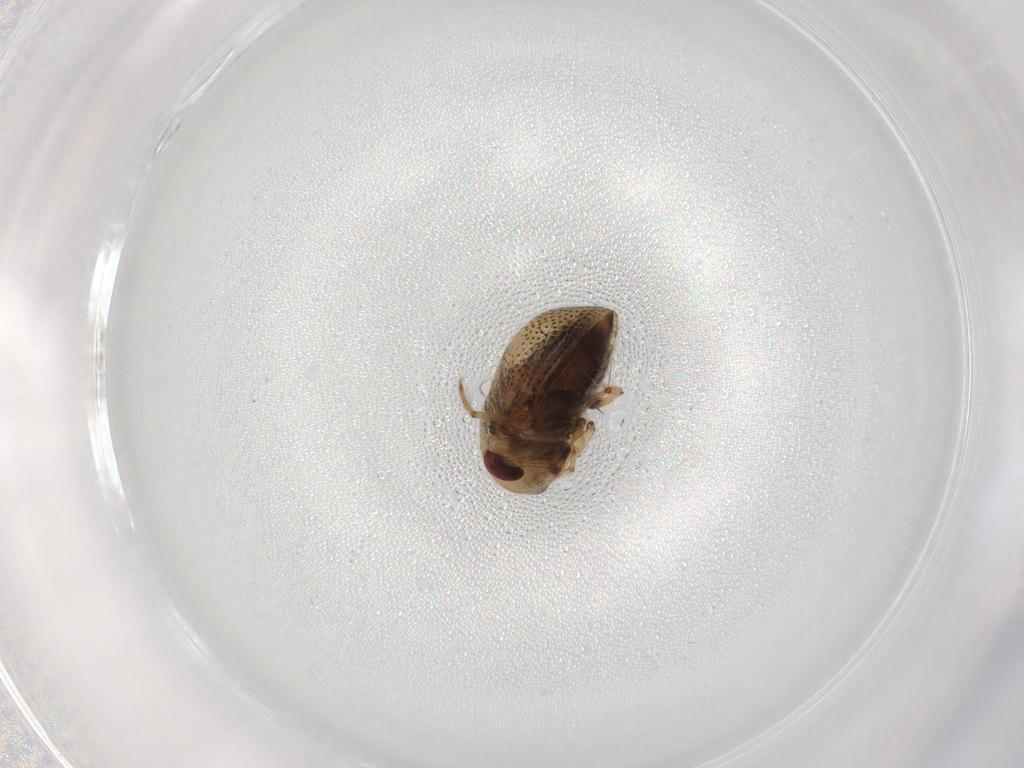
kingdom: Animalia
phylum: Arthropoda
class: Insecta
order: Hemiptera
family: Pleidae
